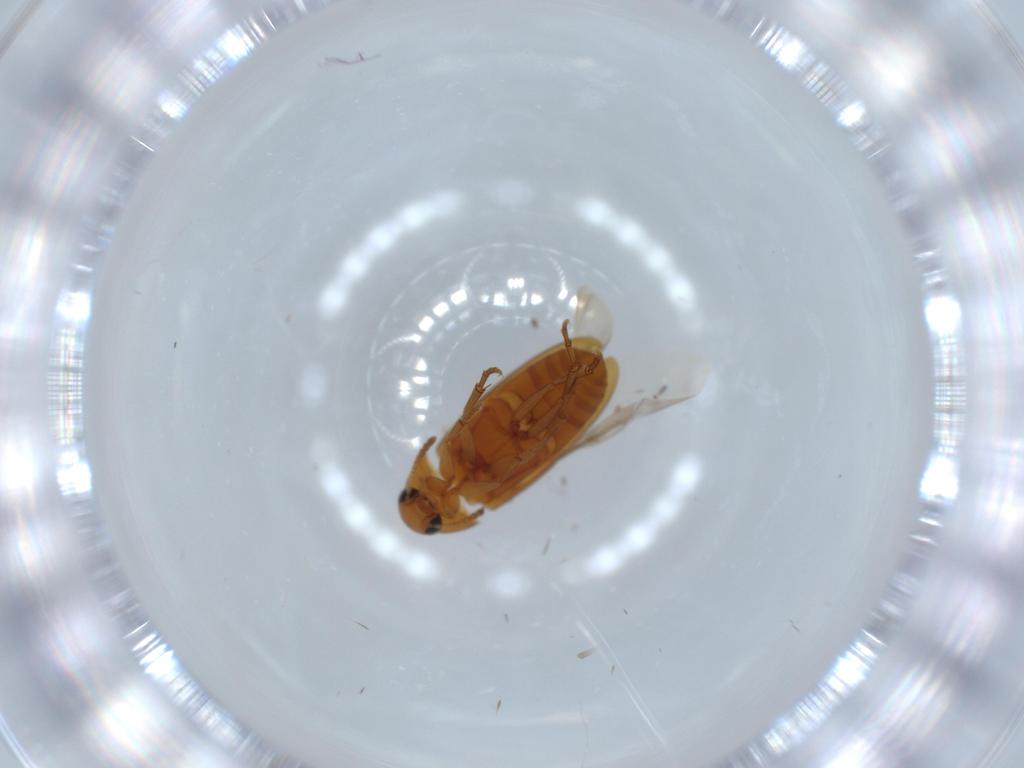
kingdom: Animalia
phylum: Arthropoda
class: Insecta
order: Coleoptera
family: Scraptiidae
